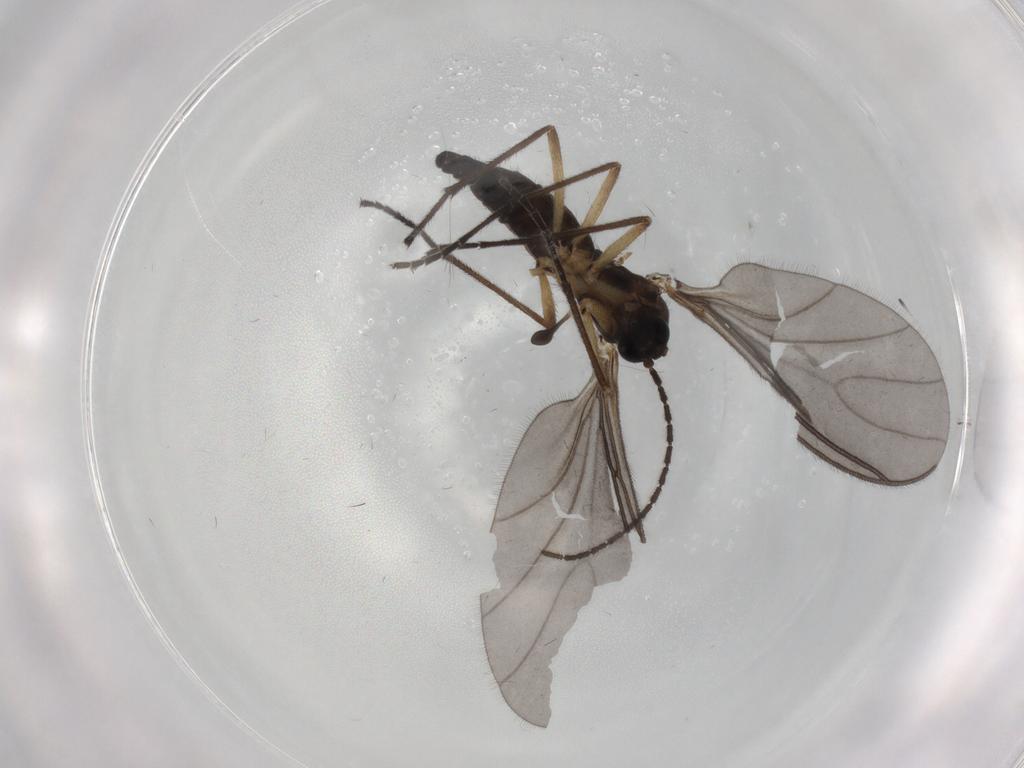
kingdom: Animalia
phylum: Arthropoda
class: Insecta
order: Diptera
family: Sciaridae
